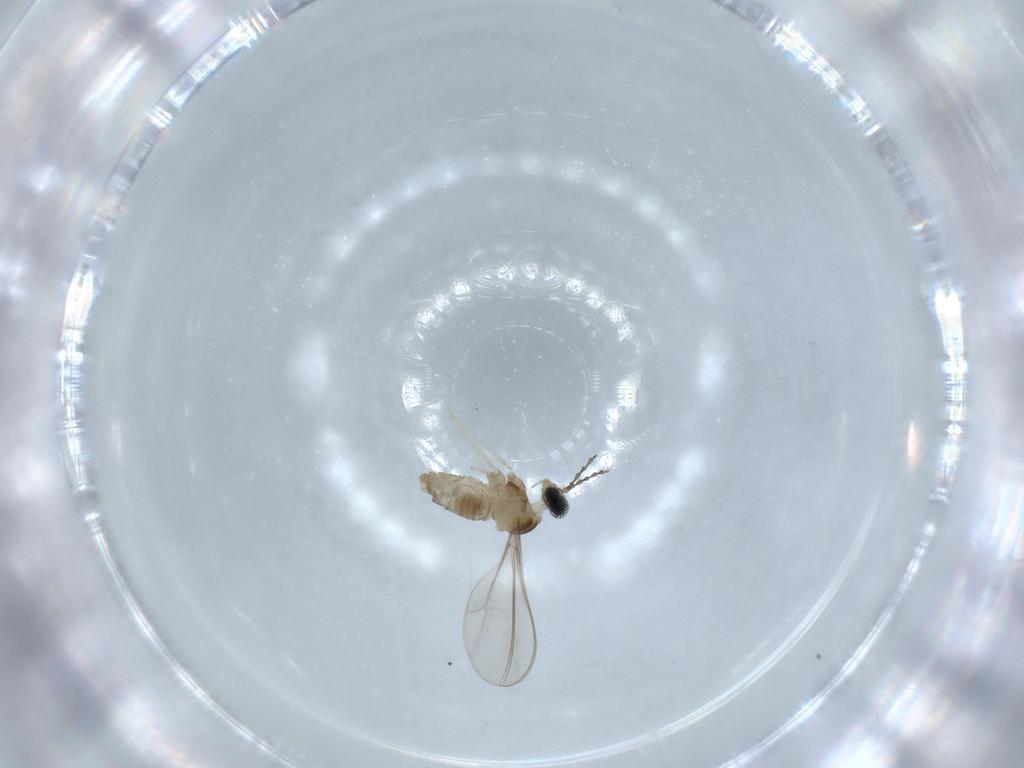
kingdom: Animalia
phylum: Arthropoda
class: Insecta
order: Diptera
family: Cecidomyiidae
